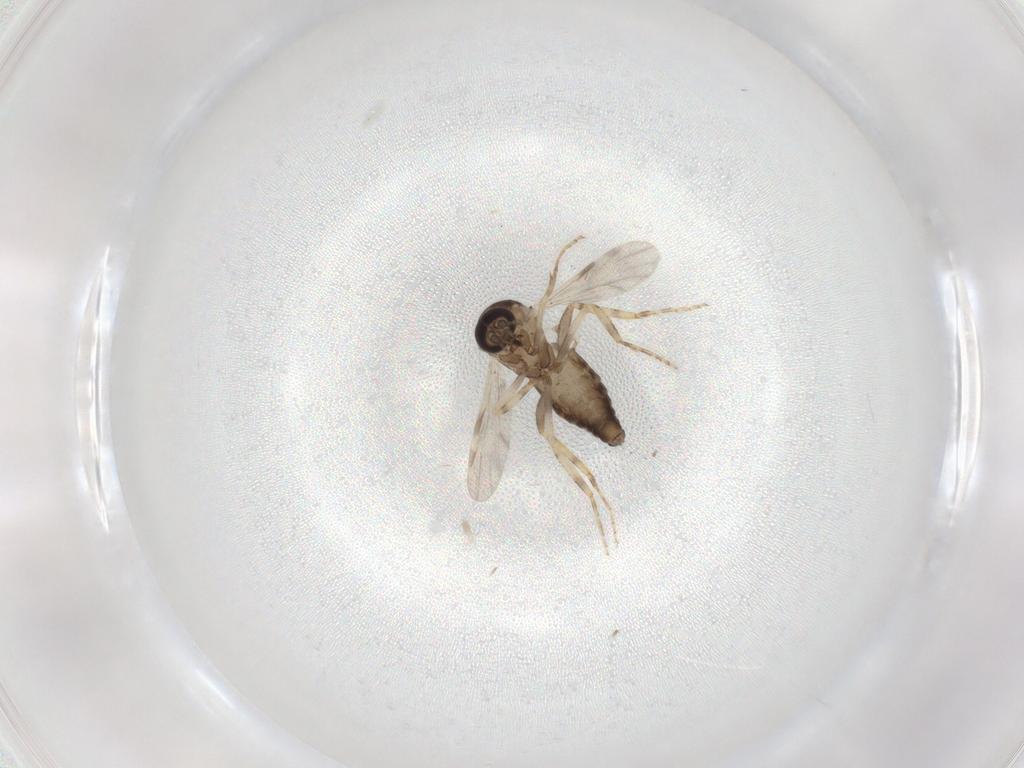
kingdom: Animalia
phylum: Arthropoda
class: Insecta
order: Diptera
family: Ceratopogonidae
